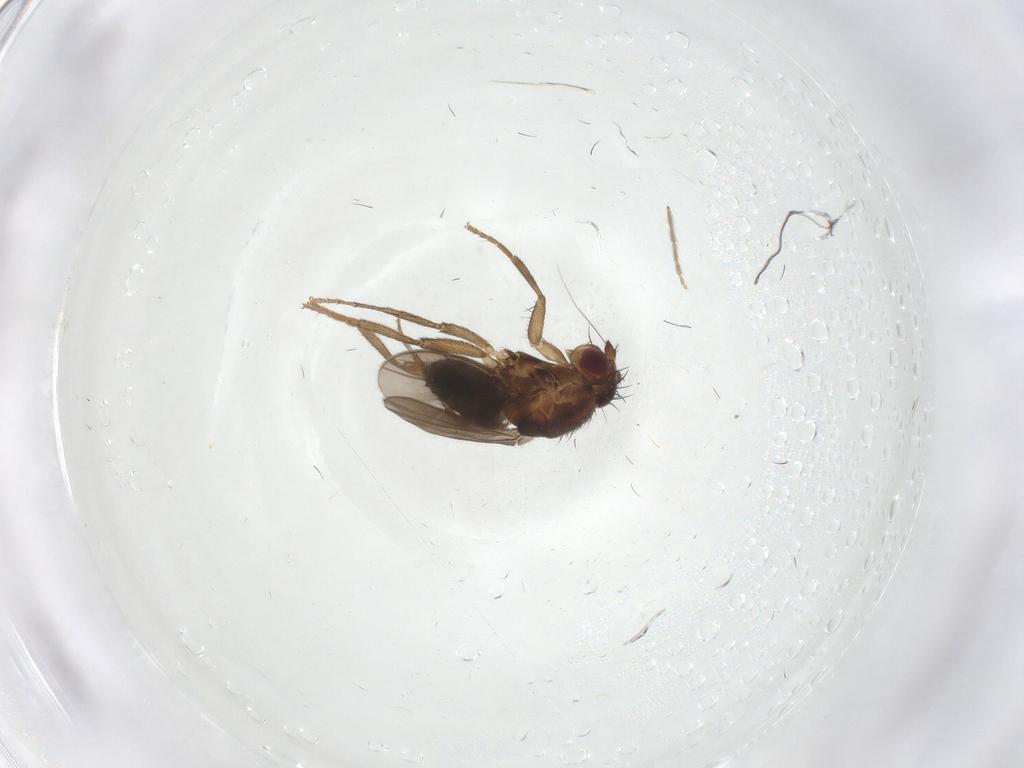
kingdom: Animalia
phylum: Arthropoda
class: Insecta
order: Diptera
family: Sphaeroceridae
